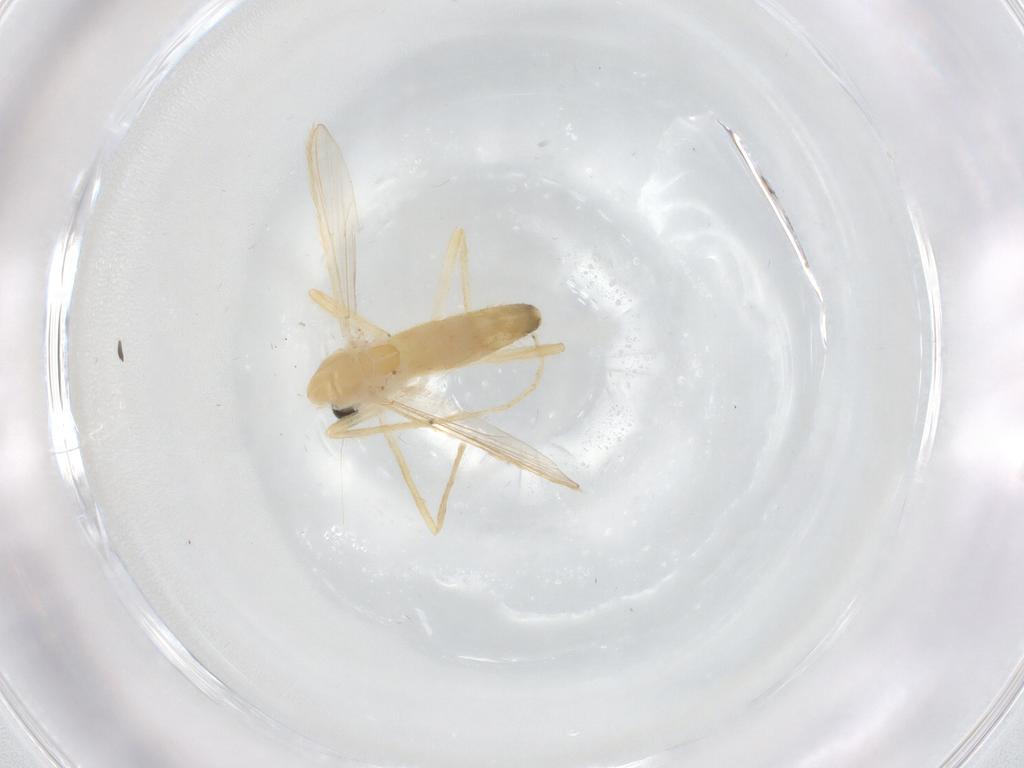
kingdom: Animalia
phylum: Arthropoda
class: Insecta
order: Diptera
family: Chironomidae
